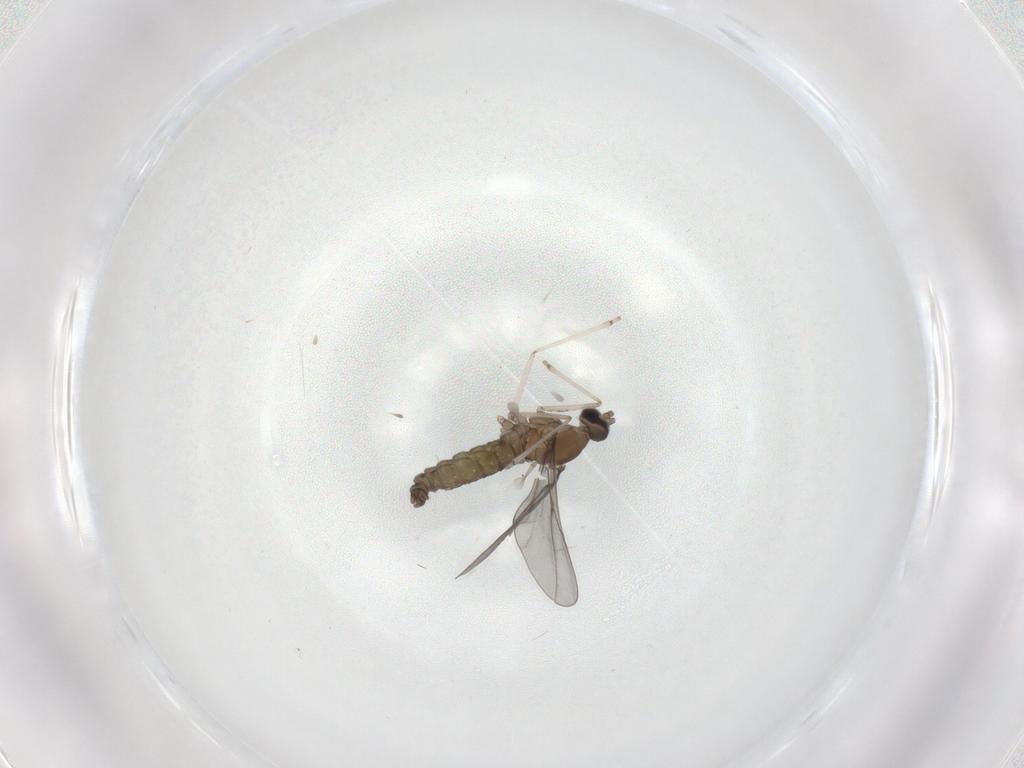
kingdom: Animalia
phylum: Arthropoda
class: Insecta
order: Diptera
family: Phoridae
